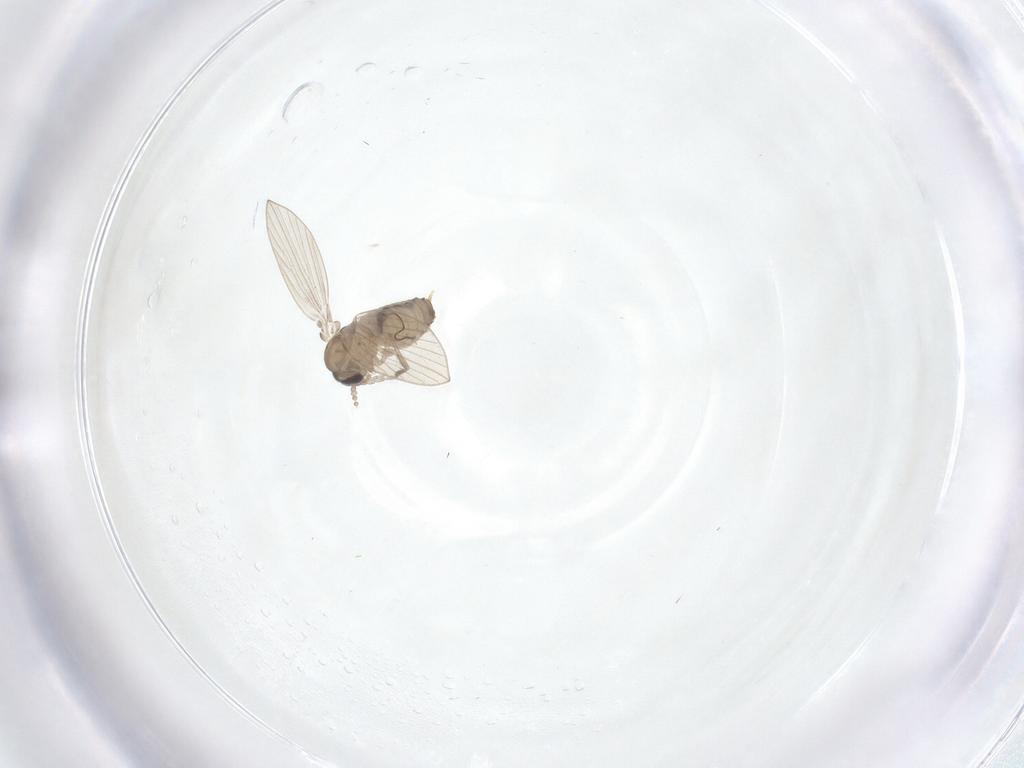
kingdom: Animalia
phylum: Arthropoda
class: Insecta
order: Diptera
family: Psychodidae
